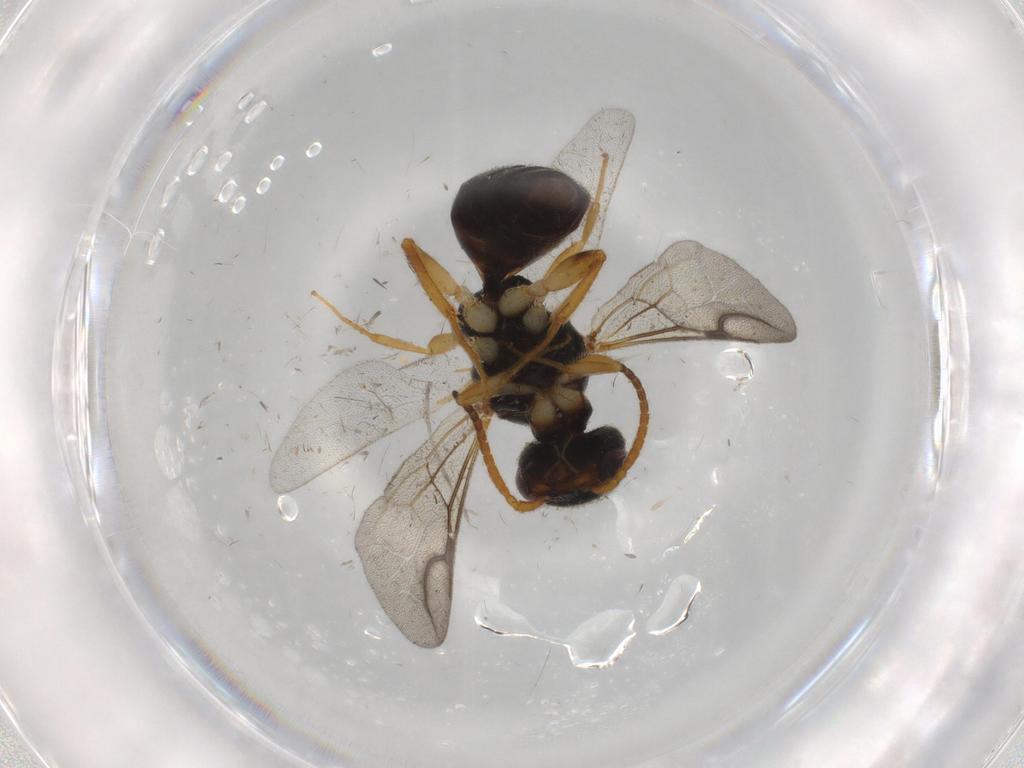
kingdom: Animalia
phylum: Arthropoda
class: Insecta
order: Hymenoptera
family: Bethylidae
